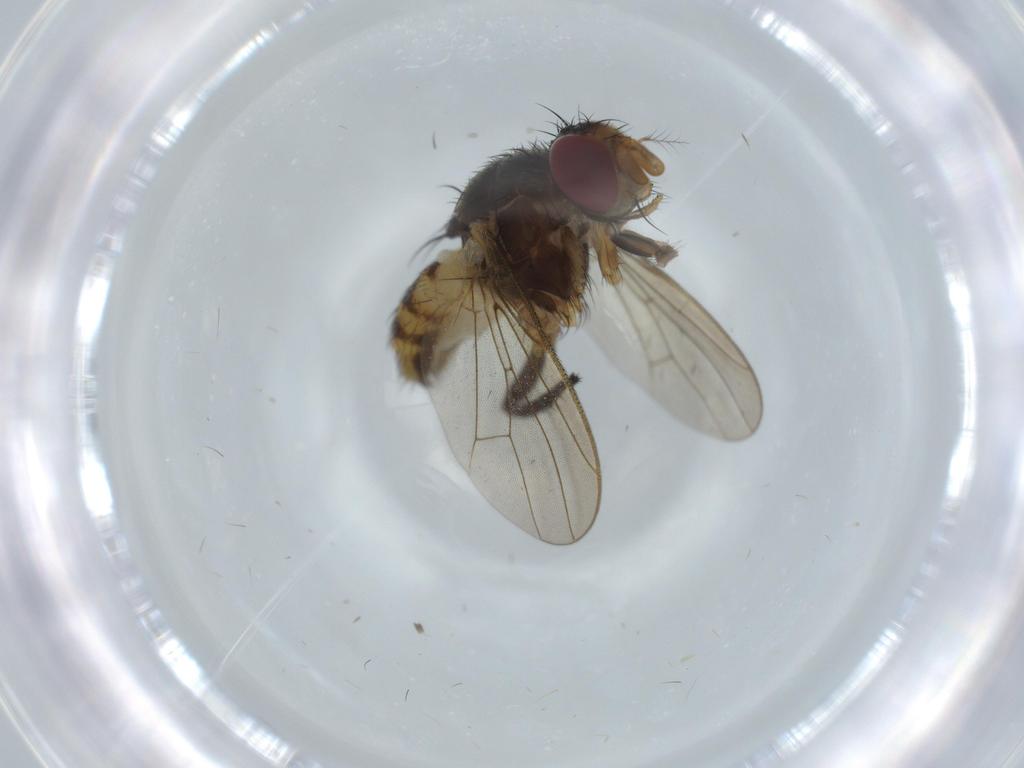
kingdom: Animalia
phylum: Arthropoda
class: Insecta
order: Diptera
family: Anthomyiidae
